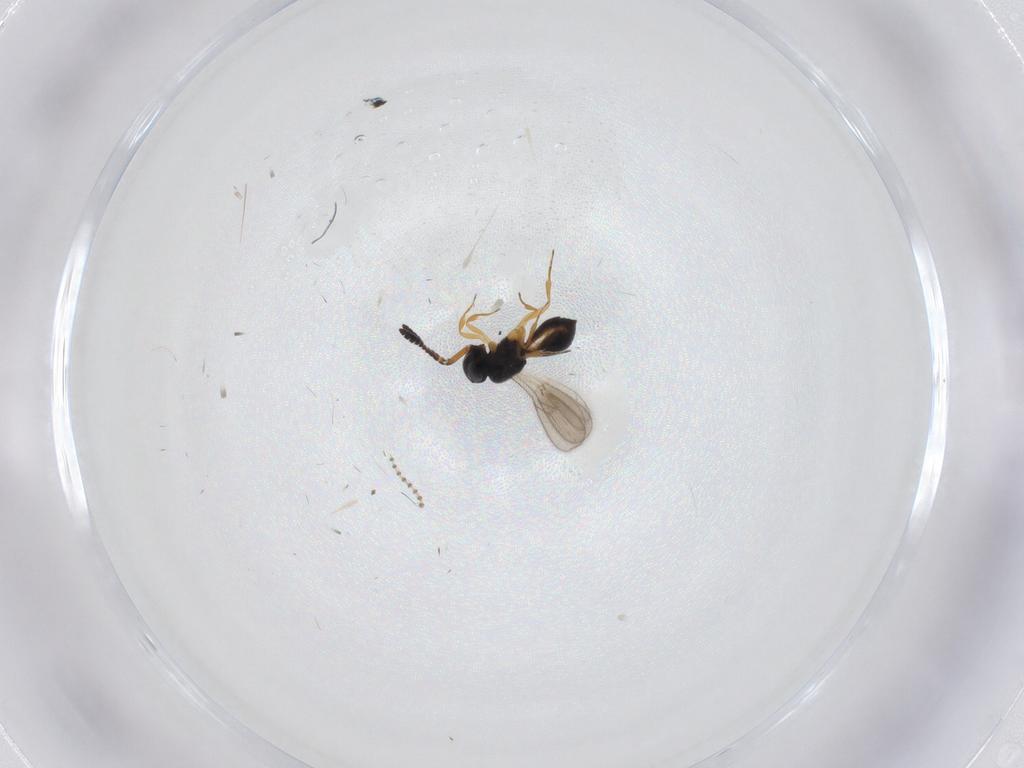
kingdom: Animalia
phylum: Arthropoda
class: Insecta
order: Hymenoptera
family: Scelionidae
